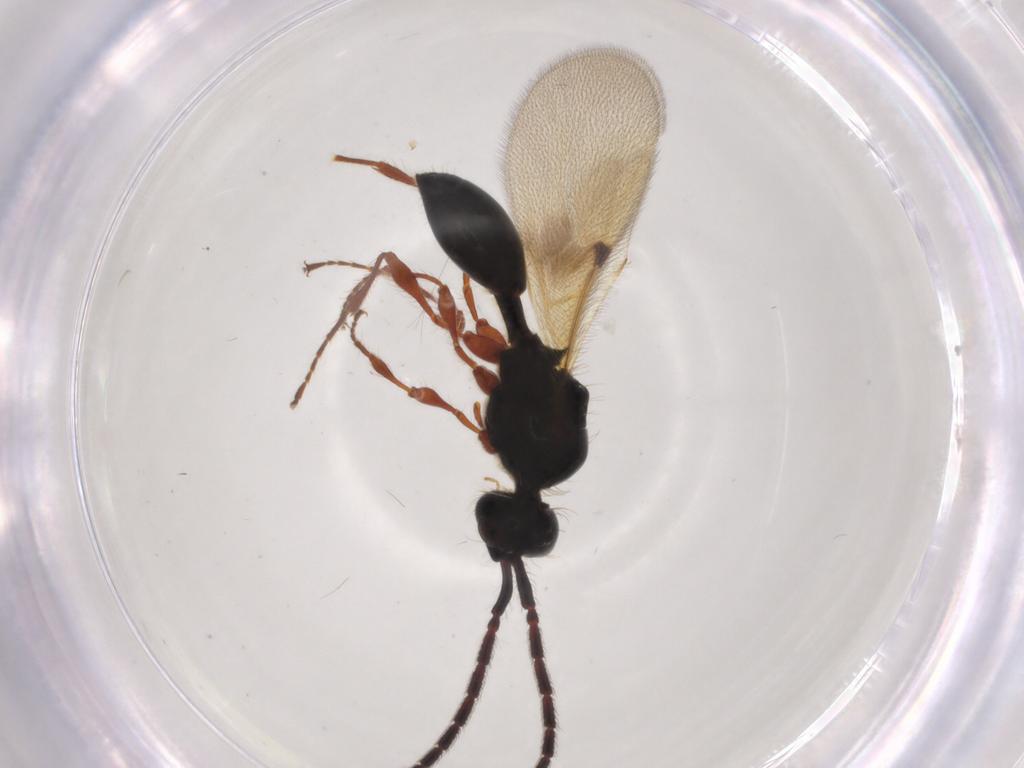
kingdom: Animalia
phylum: Arthropoda
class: Insecta
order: Hymenoptera
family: Diapriidae
